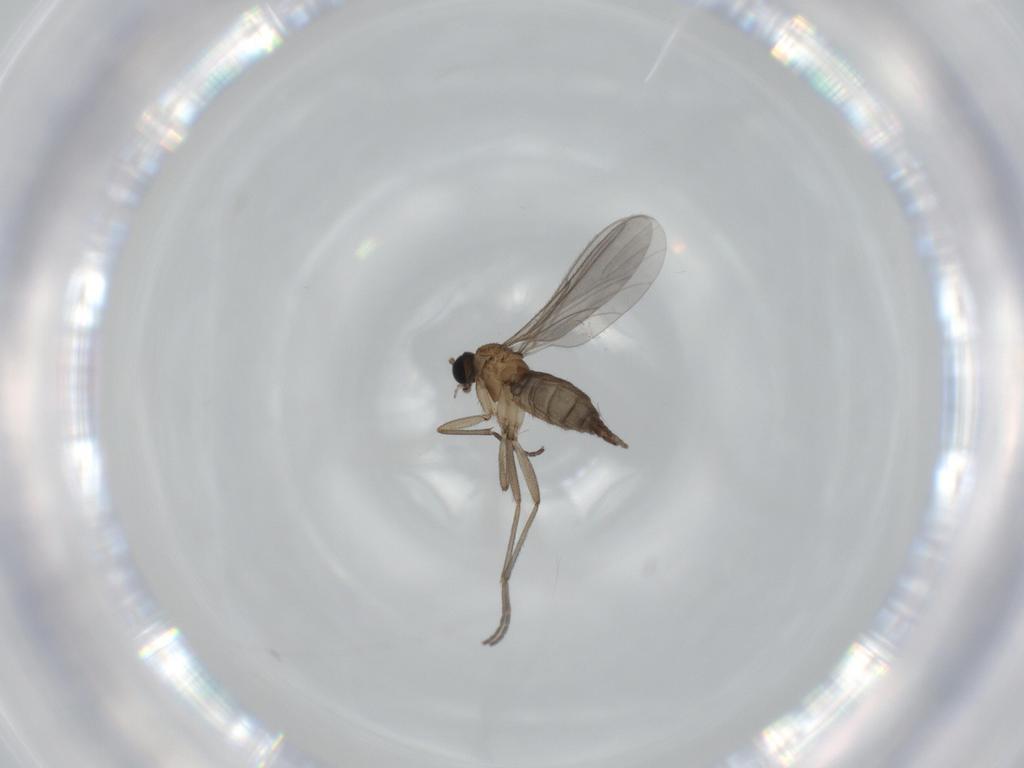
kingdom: Animalia
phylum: Arthropoda
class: Insecta
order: Diptera
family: Sciaridae
